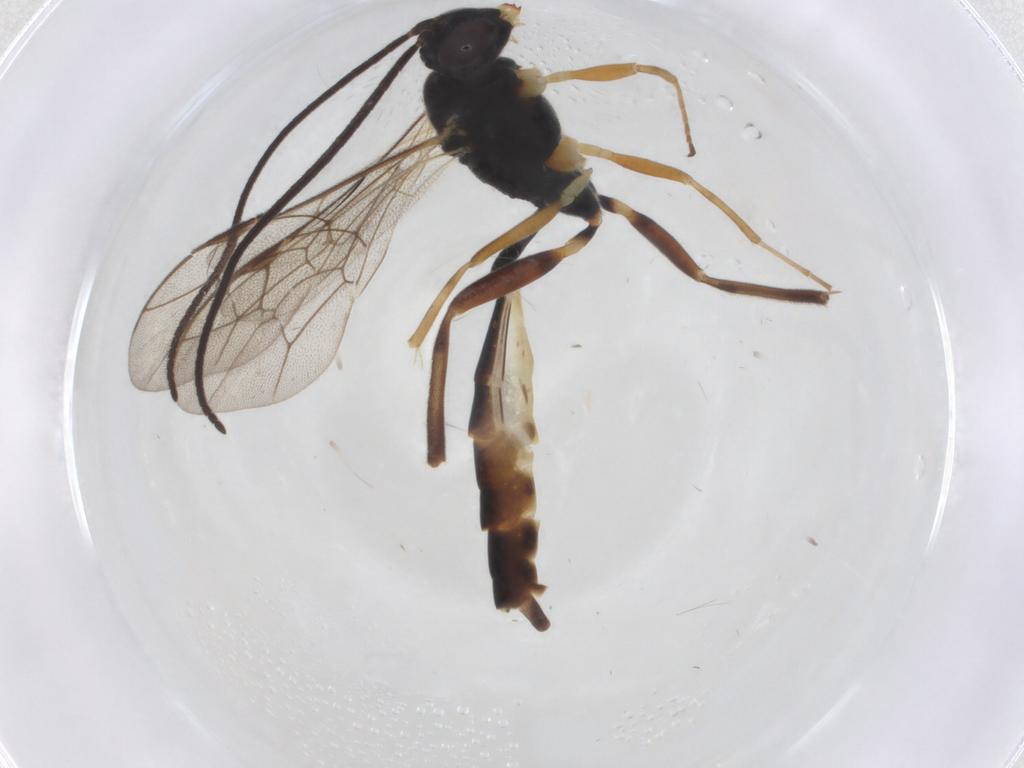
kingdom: Animalia
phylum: Arthropoda
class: Insecta
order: Hymenoptera
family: Ichneumonidae
